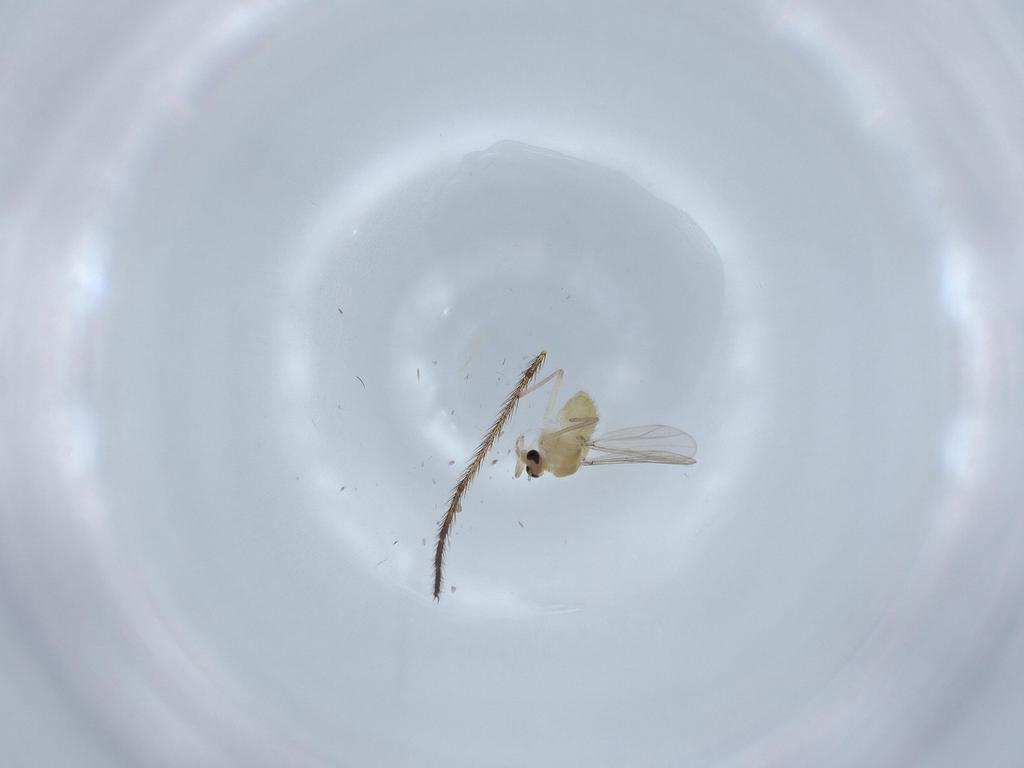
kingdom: Animalia
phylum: Arthropoda
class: Insecta
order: Diptera
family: Chironomidae
